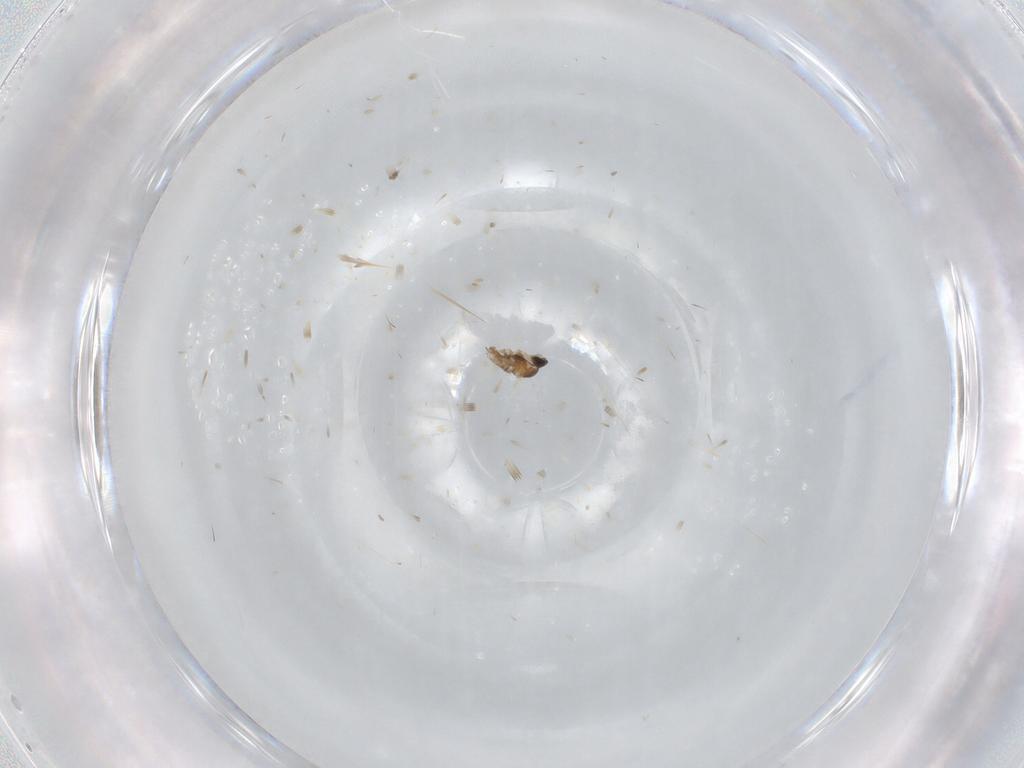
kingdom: Animalia
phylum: Arthropoda
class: Insecta
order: Diptera
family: Cecidomyiidae
